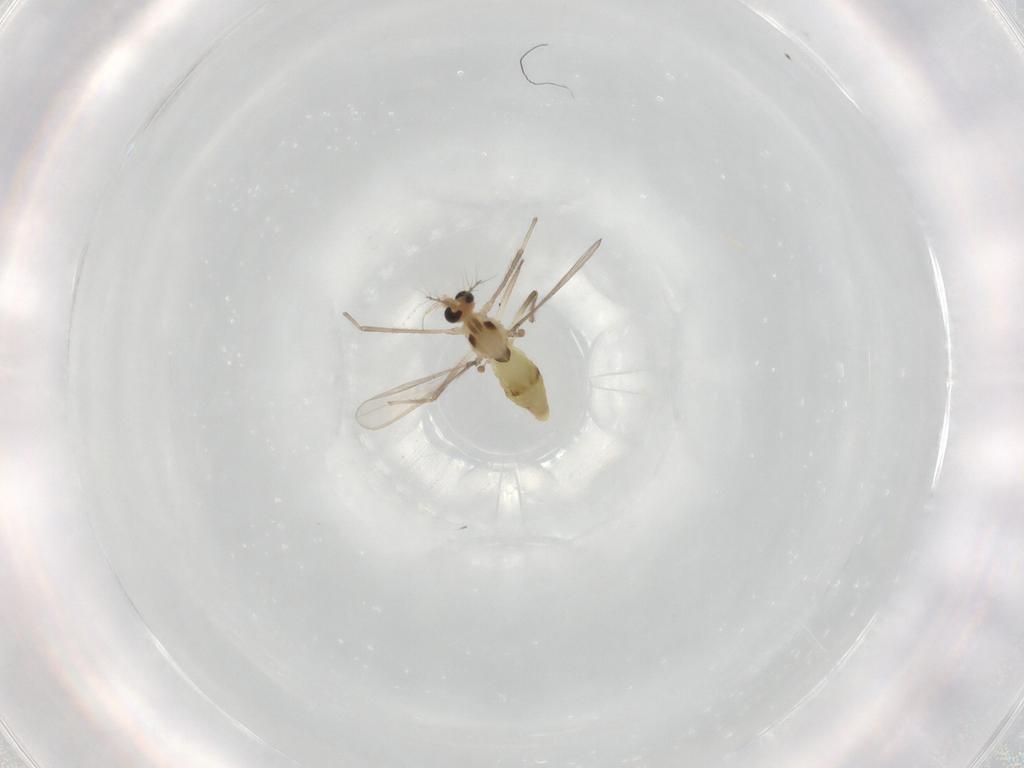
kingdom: Animalia
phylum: Arthropoda
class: Insecta
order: Diptera
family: Chironomidae
